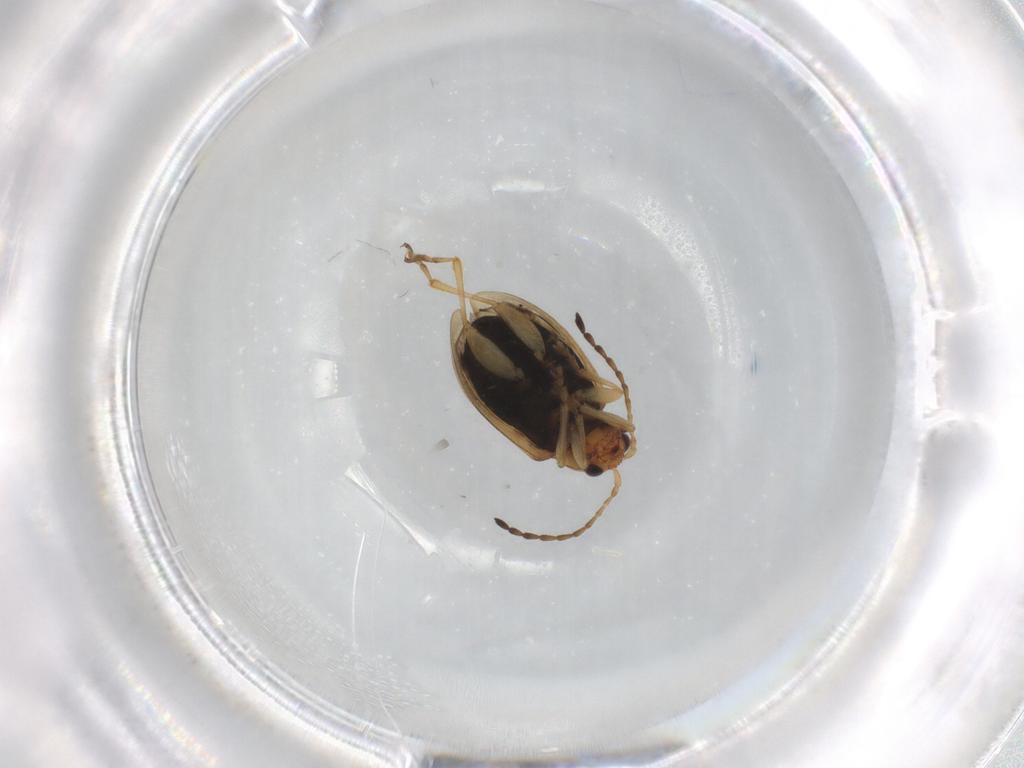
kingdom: Animalia
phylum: Arthropoda
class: Insecta
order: Coleoptera
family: Chrysomelidae
